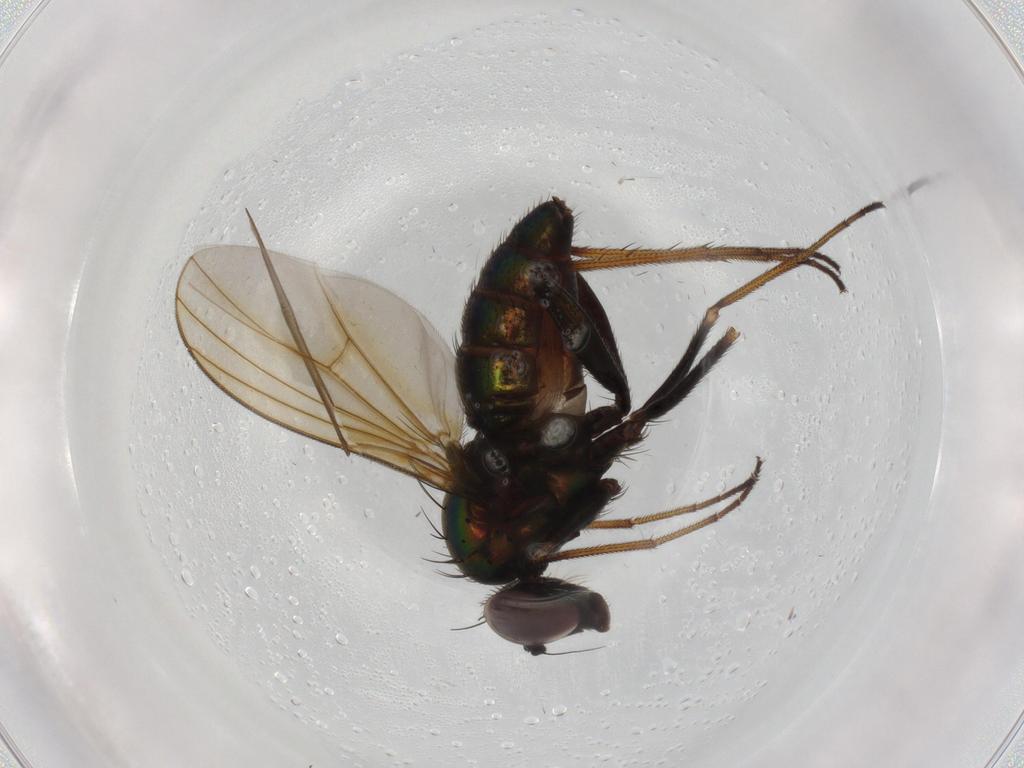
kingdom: Animalia
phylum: Arthropoda
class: Insecta
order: Diptera
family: Dolichopodidae
